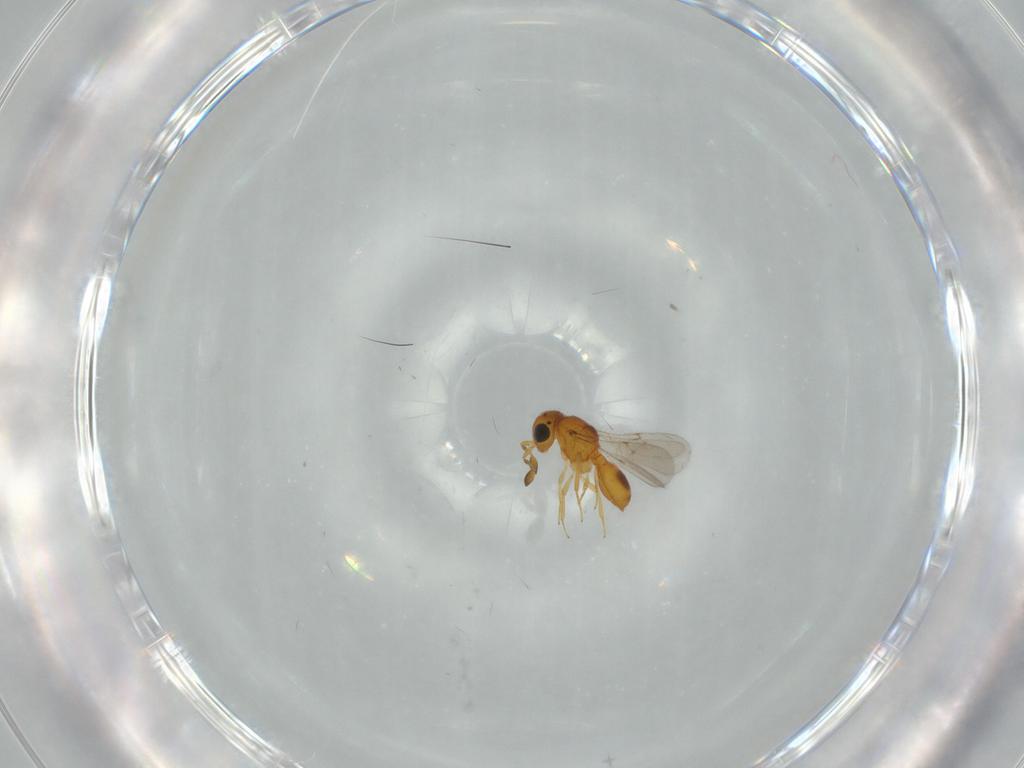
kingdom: Animalia
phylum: Arthropoda
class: Insecta
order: Hymenoptera
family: Scelionidae
